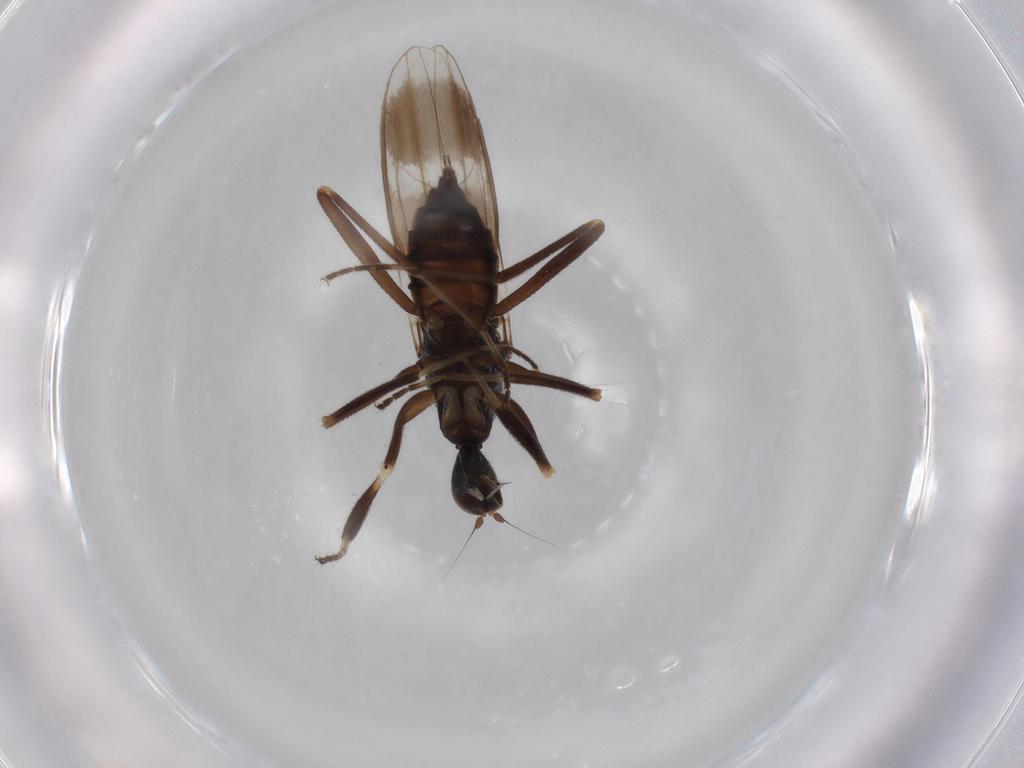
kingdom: Animalia
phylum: Arthropoda
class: Insecta
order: Diptera
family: Hybotidae
